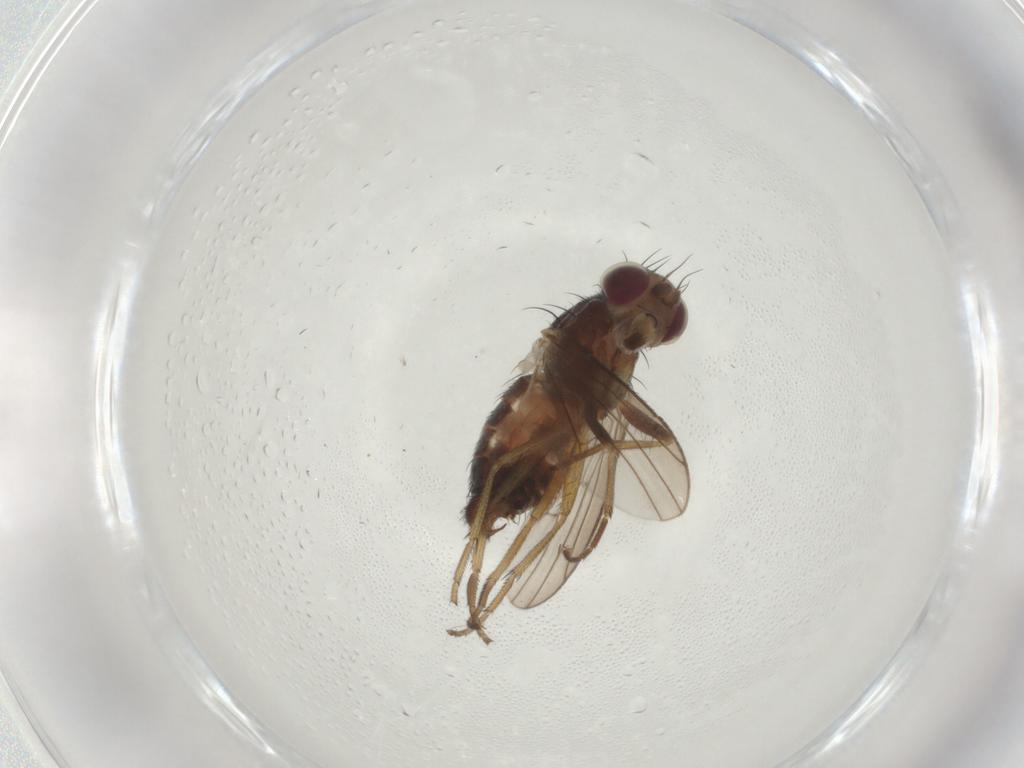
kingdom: Animalia
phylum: Arthropoda
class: Insecta
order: Diptera
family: Heleomyzidae
